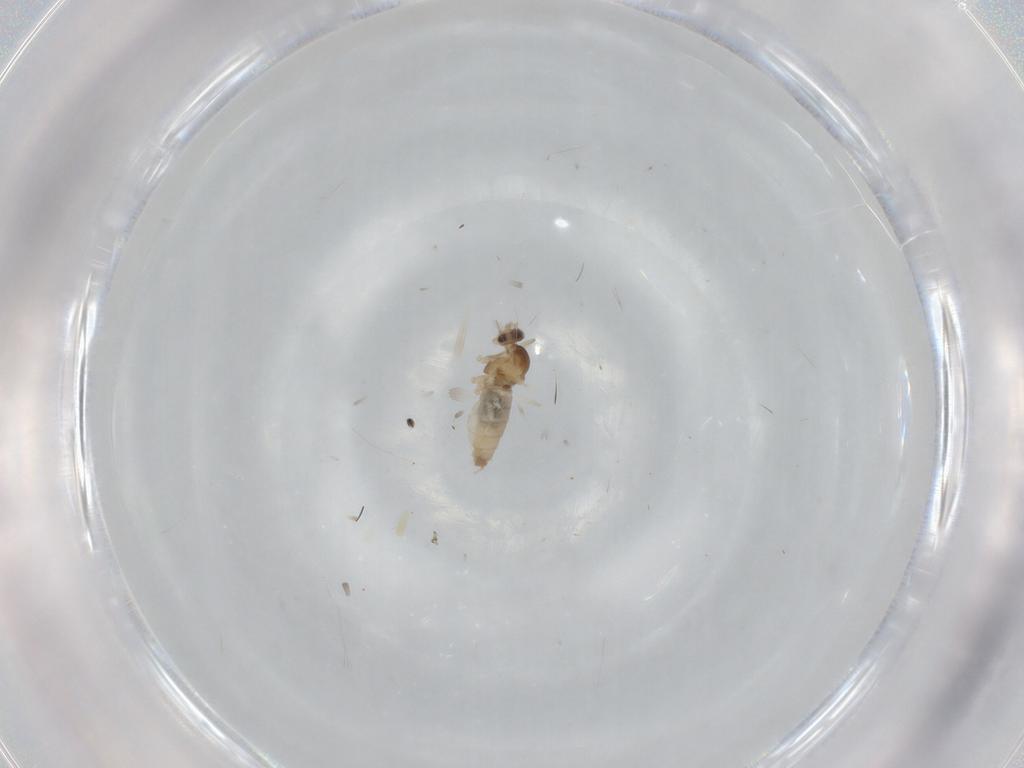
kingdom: Animalia
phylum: Arthropoda
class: Insecta
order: Diptera
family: Cecidomyiidae
